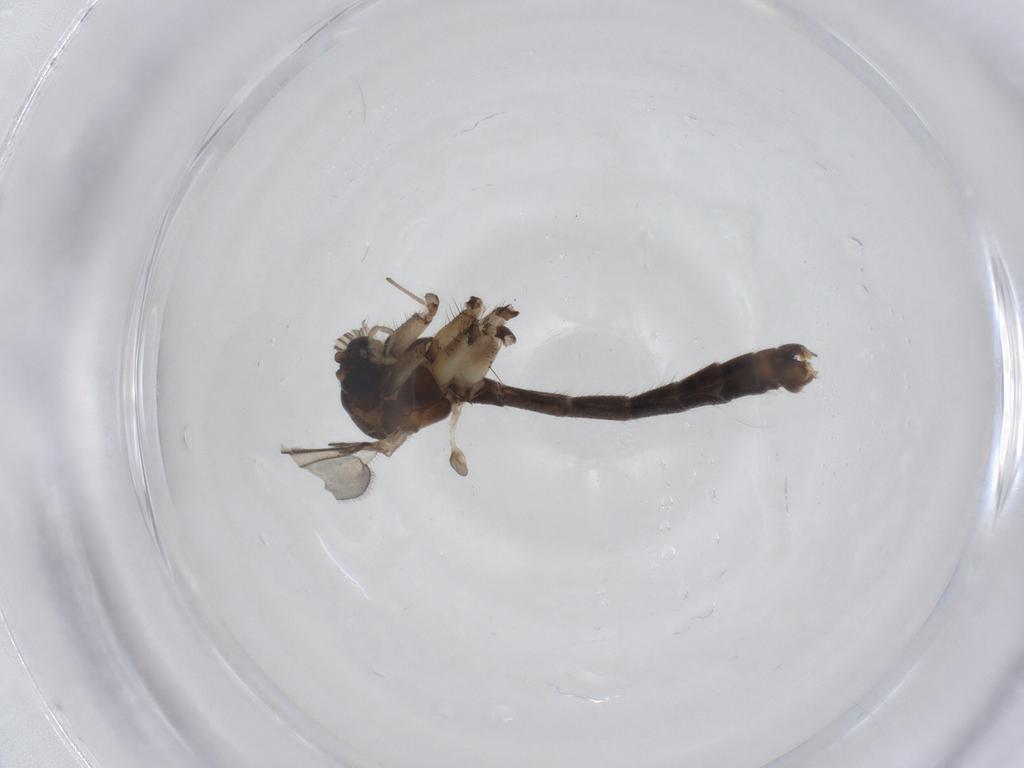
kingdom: Animalia
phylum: Arthropoda
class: Insecta
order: Diptera
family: Mycetophilidae
